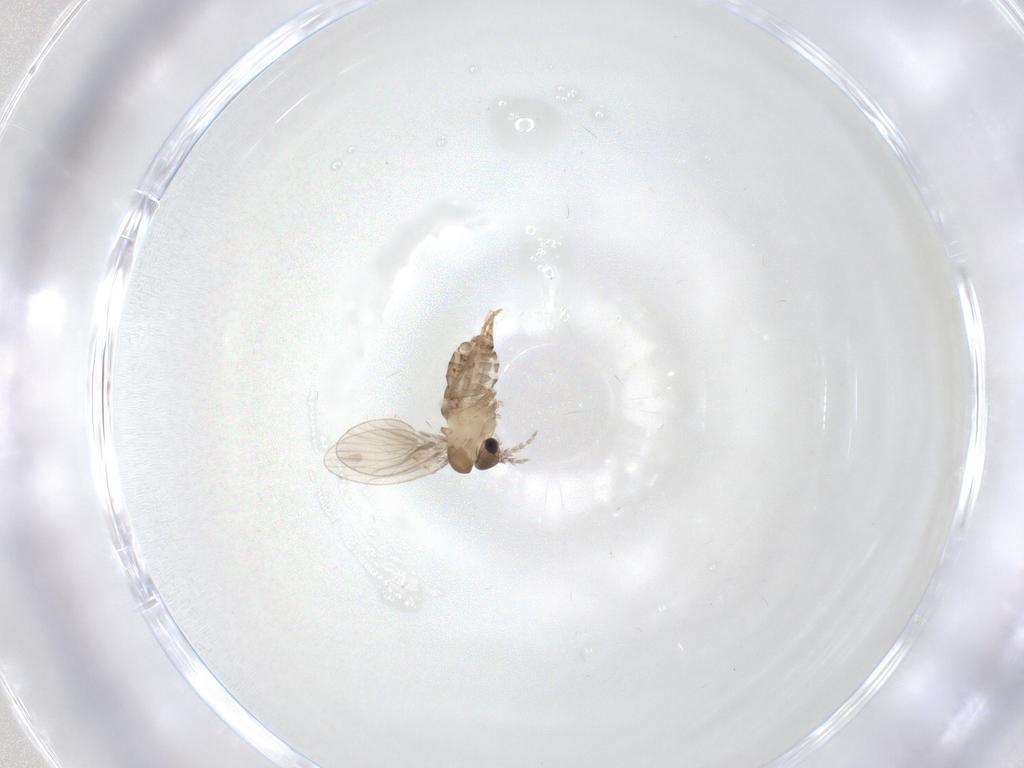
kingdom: Animalia
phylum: Arthropoda
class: Insecta
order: Diptera
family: Psychodidae
